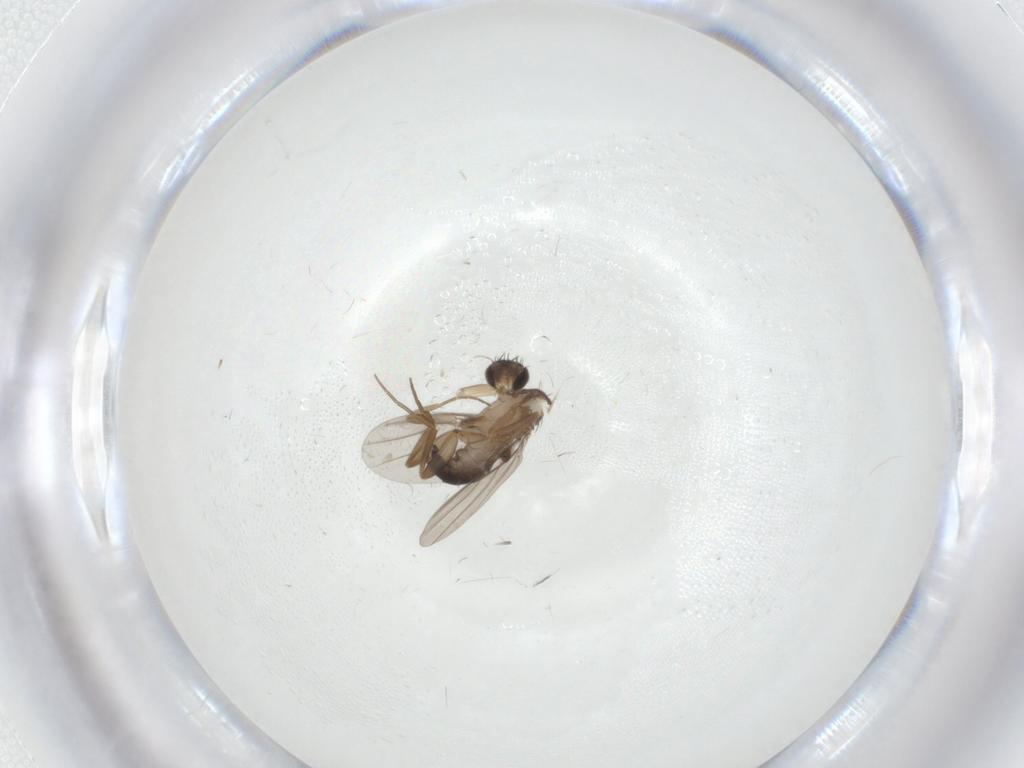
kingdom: Animalia
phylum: Arthropoda
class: Insecta
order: Diptera
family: Phoridae
